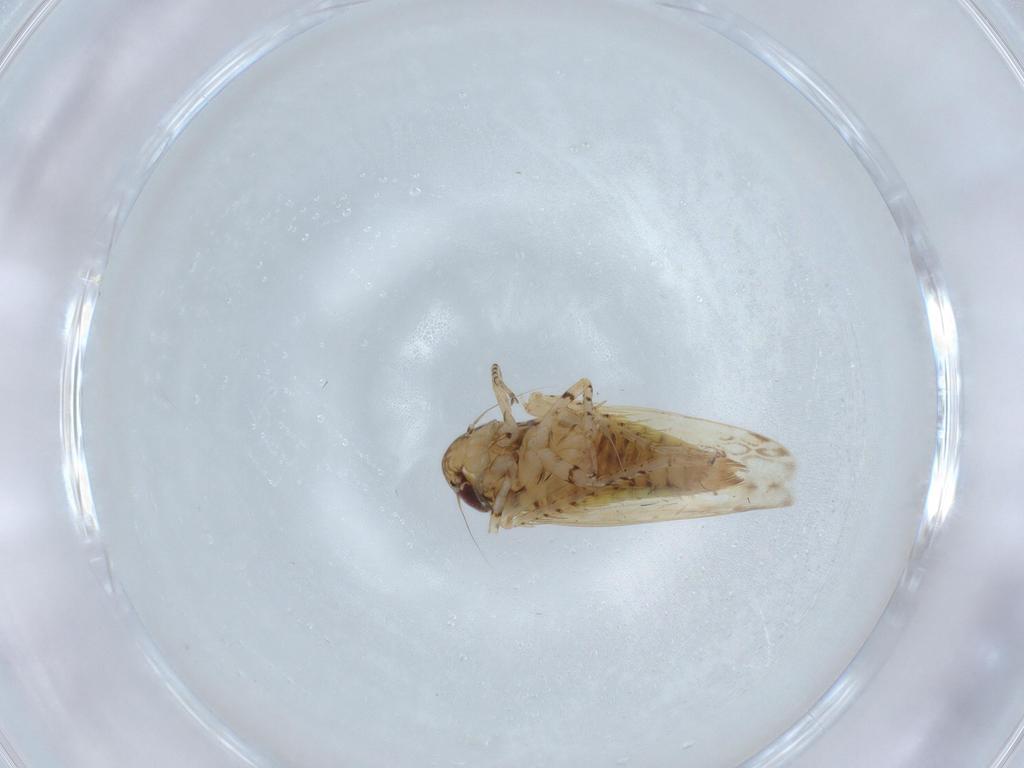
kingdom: Animalia
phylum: Arthropoda
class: Insecta
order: Hemiptera
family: Cicadellidae
